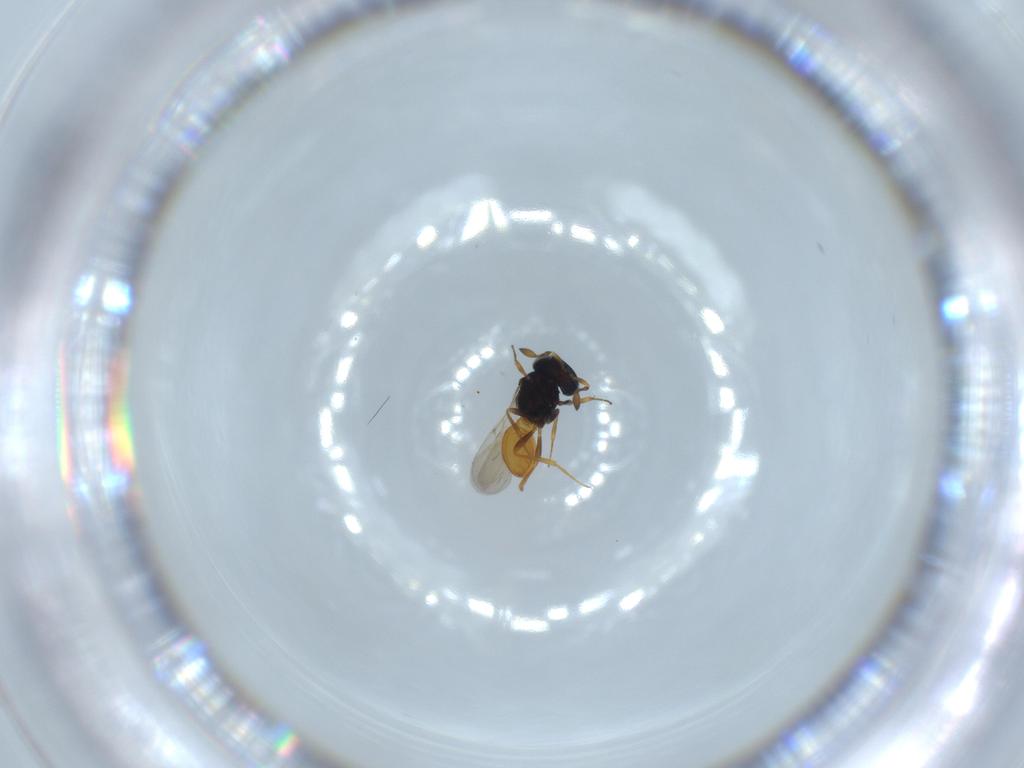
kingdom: Animalia
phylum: Arthropoda
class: Insecta
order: Hymenoptera
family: Scelionidae
